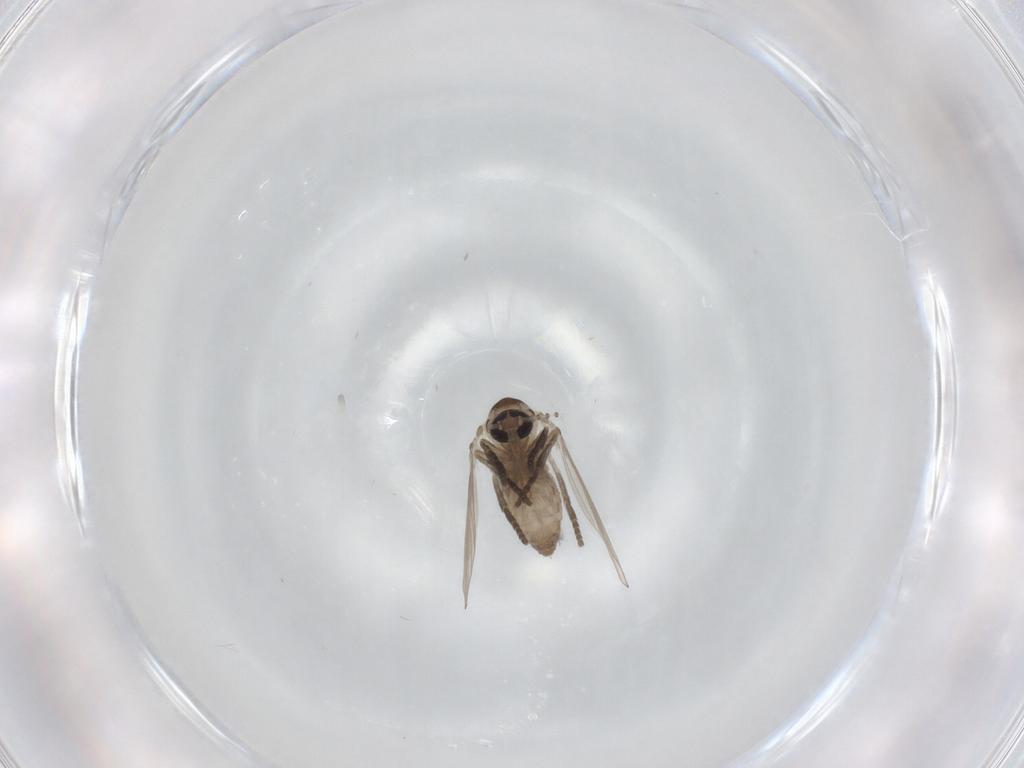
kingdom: Animalia
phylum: Arthropoda
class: Insecta
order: Diptera
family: Psychodidae
